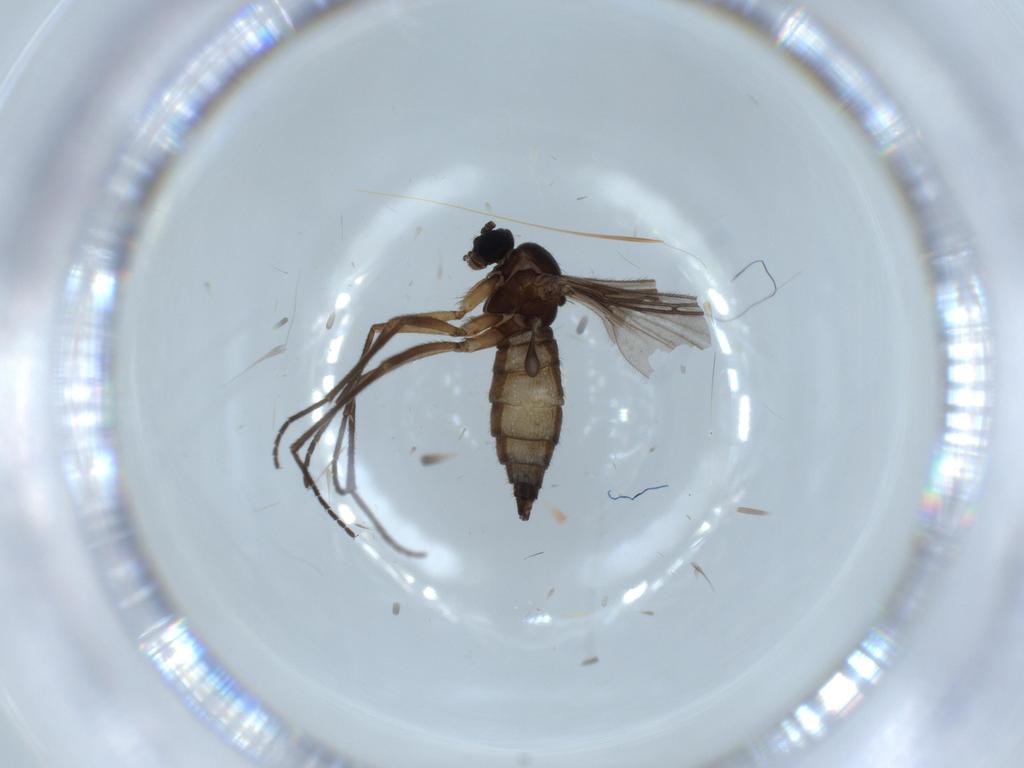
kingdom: Animalia
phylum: Arthropoda
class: Insecta
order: Diptera
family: Sciaridae
